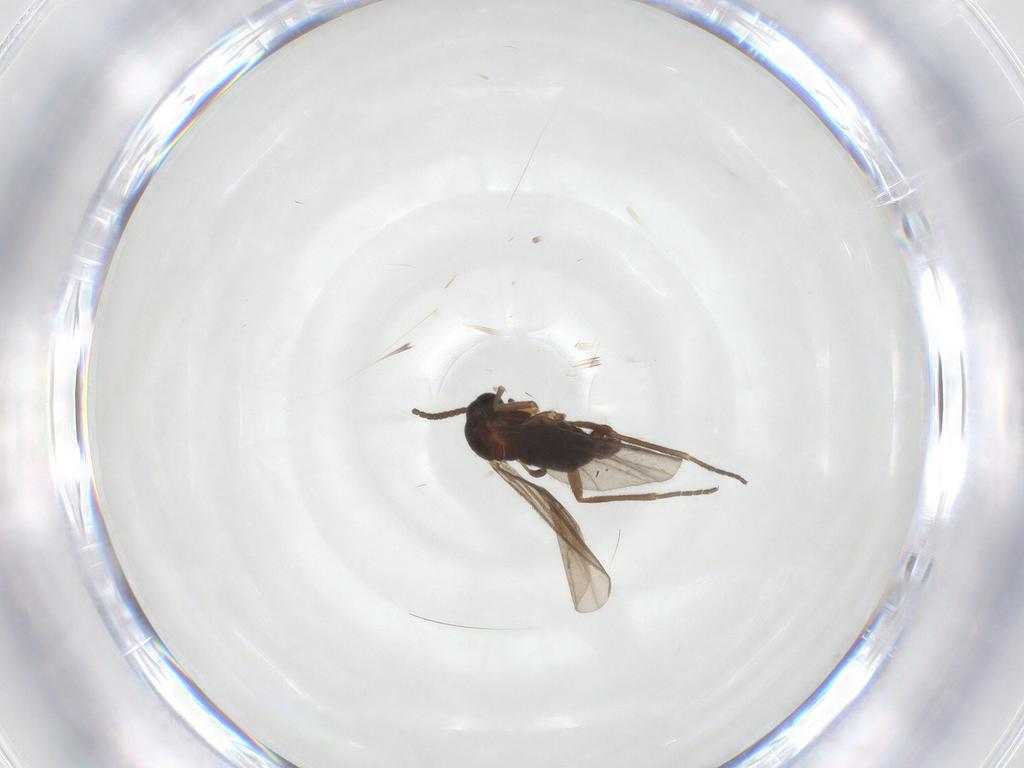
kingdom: Animalia
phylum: Arthropoda
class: Insecta
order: Diptera
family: Sciaridae
